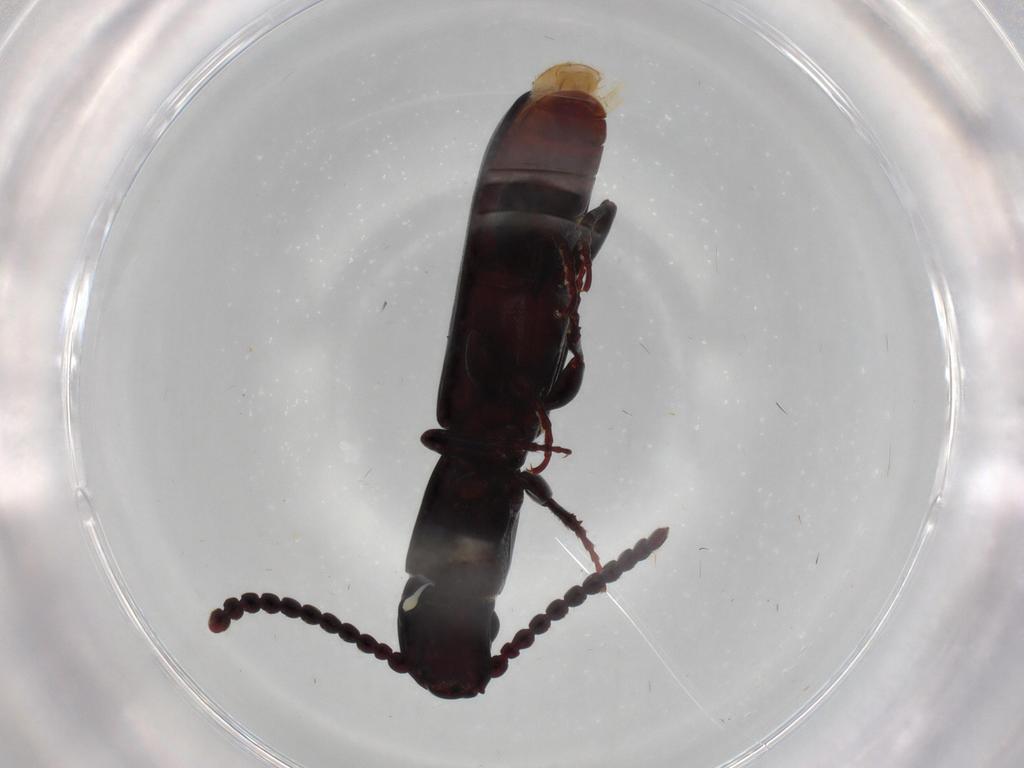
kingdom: Animalia
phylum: Arthropoda
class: Insecta
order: Coleoptera
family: Passandridae
